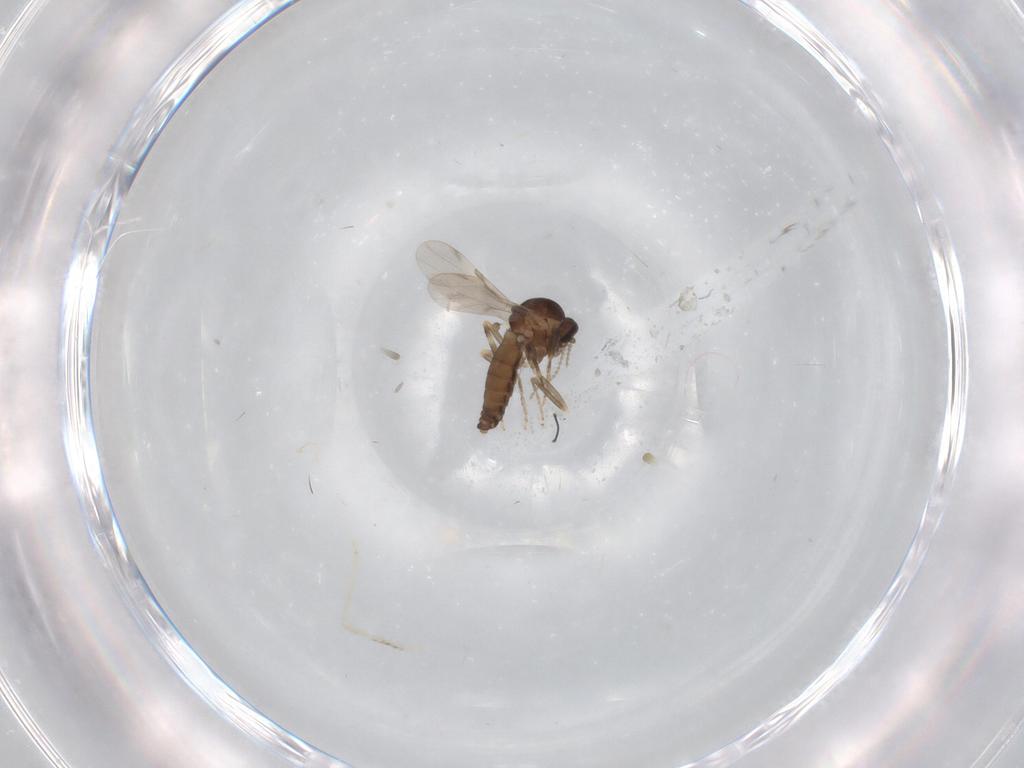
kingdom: Animalia
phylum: Arthropoda
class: Insecta
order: Diptera
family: Ceratopogonidae
